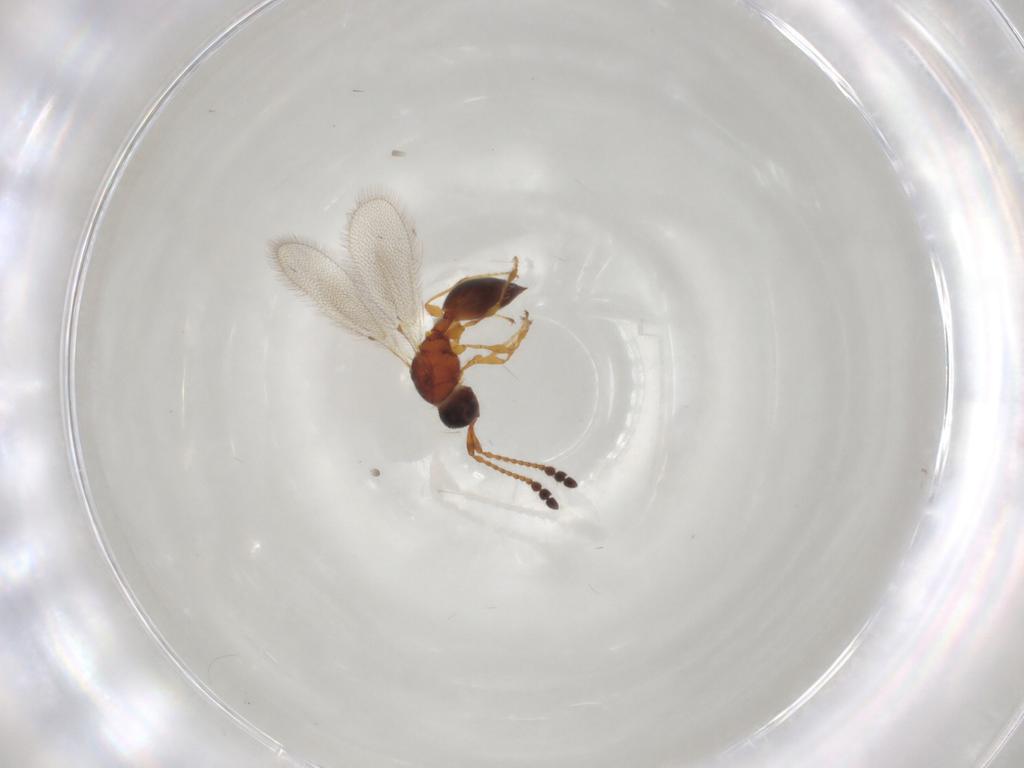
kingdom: Animalia
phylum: Arthropoda
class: Insecta
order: Hymenoptera
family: Diapriidae
